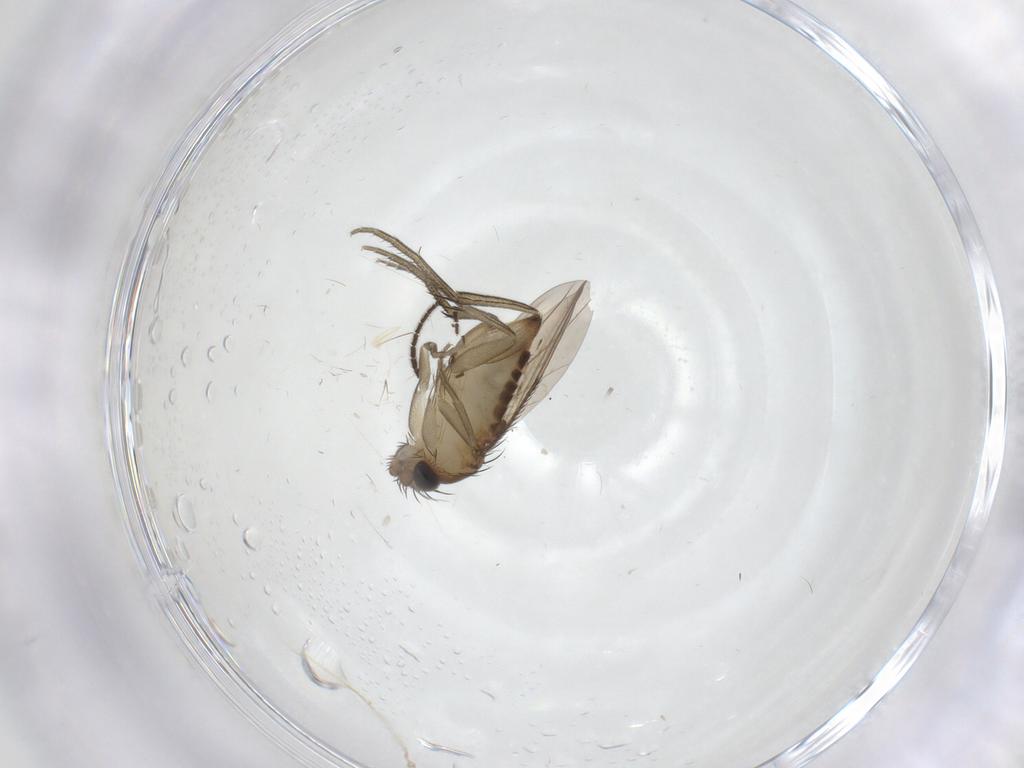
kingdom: Animalia
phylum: Arthropoda
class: Insecta
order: Diptera
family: Phoridae
